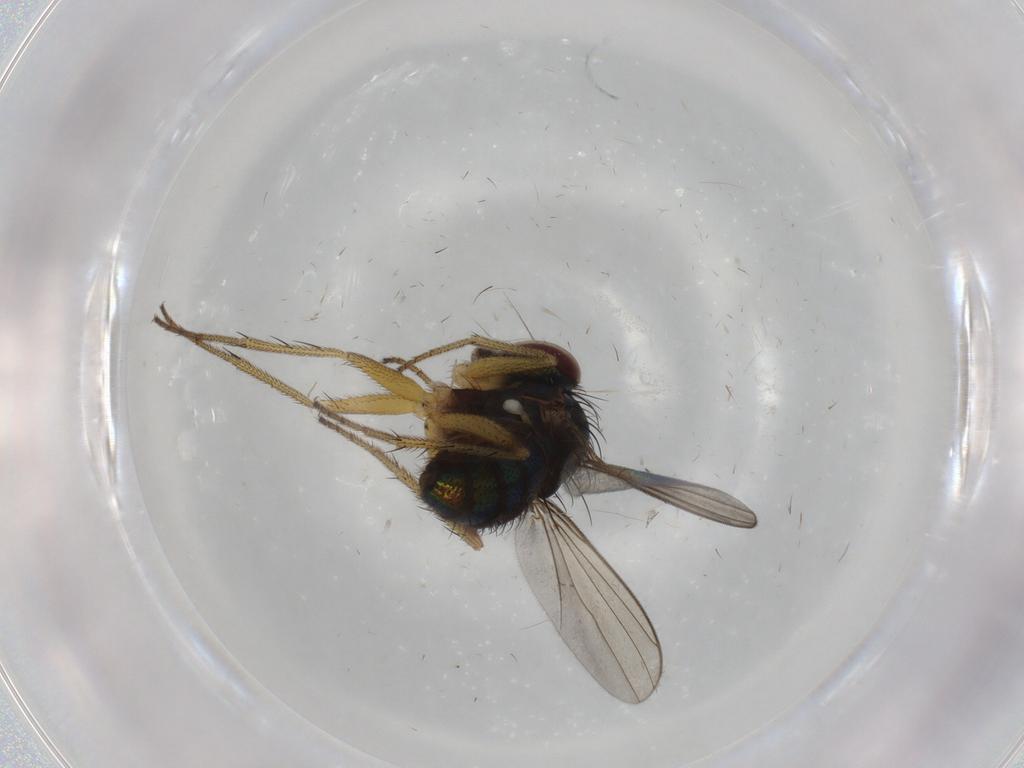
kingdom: Animalia
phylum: Arthropoda
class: Insecta
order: Diptera
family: Dolichopodidae
